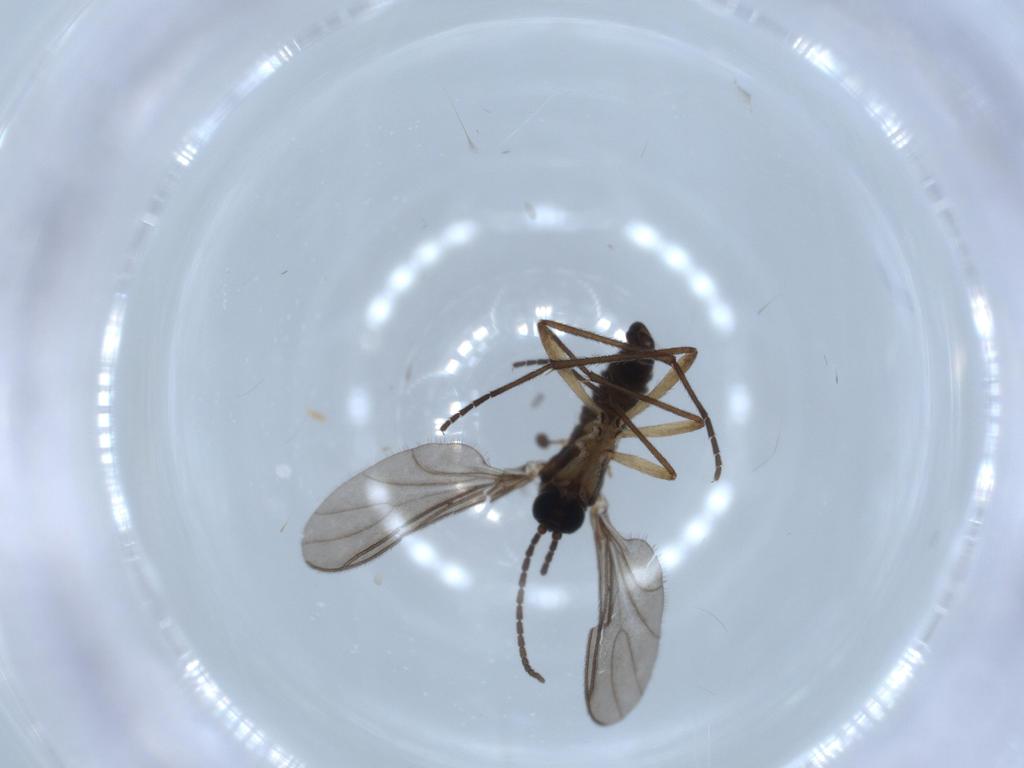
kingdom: Animalia
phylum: Arthropoda
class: Insecta
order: Diptera
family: Sciaridae
